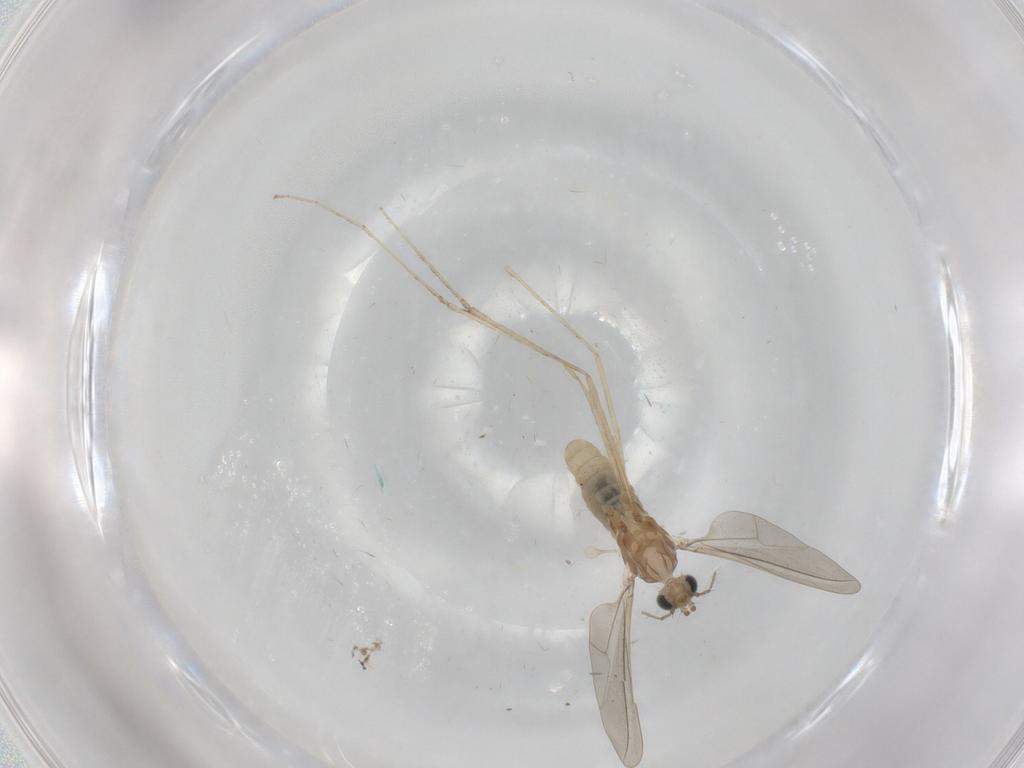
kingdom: Animalia
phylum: Arthropoda
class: Insecta
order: Diptera
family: Cecidomyiidae
